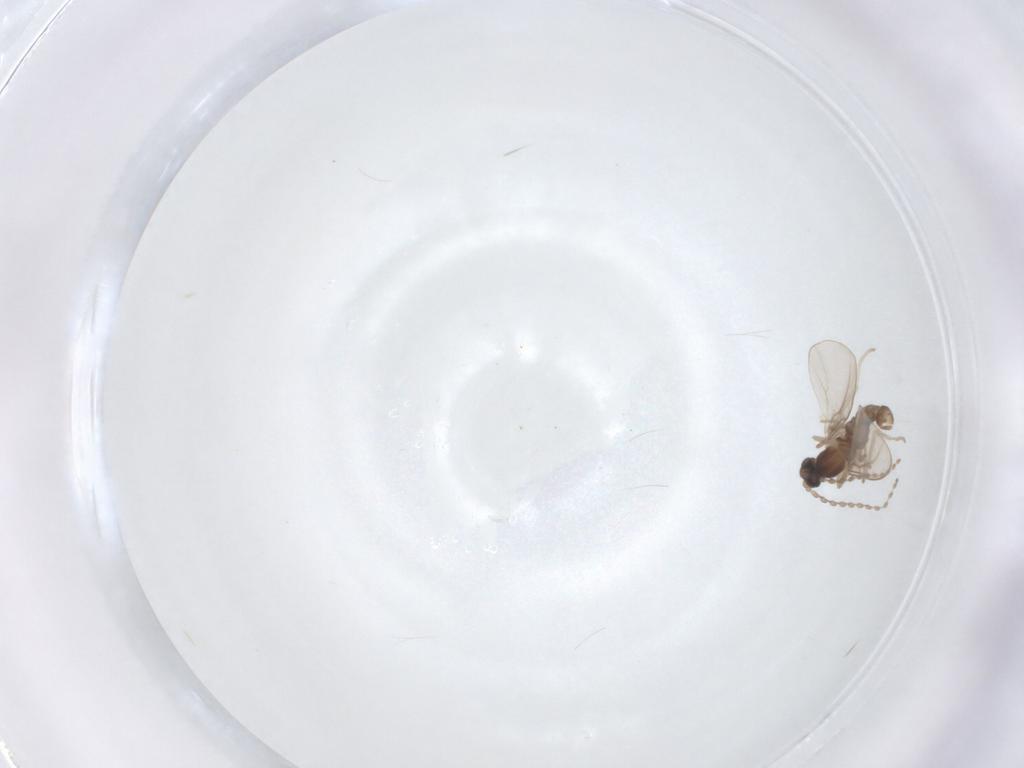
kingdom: Animalia
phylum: Arthropoda
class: Insecta
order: Diptera
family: Cecidomyiidae
